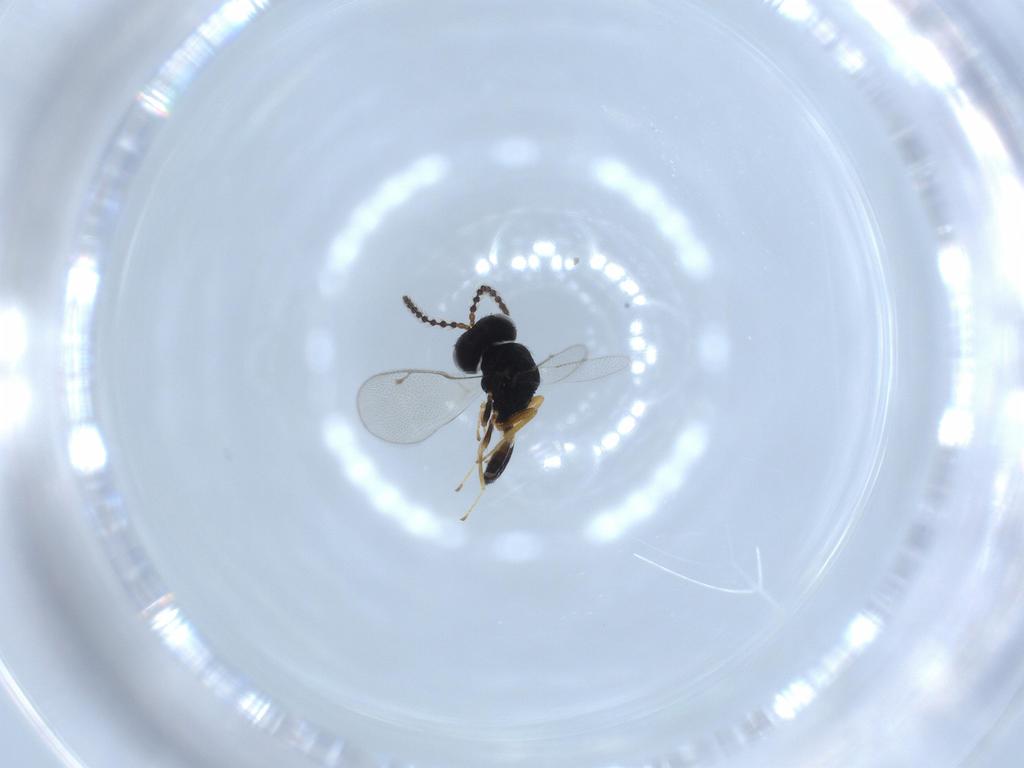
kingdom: Animalia
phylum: Arthropoda
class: Insecta
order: Hymenoptera
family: Pteromalidae
